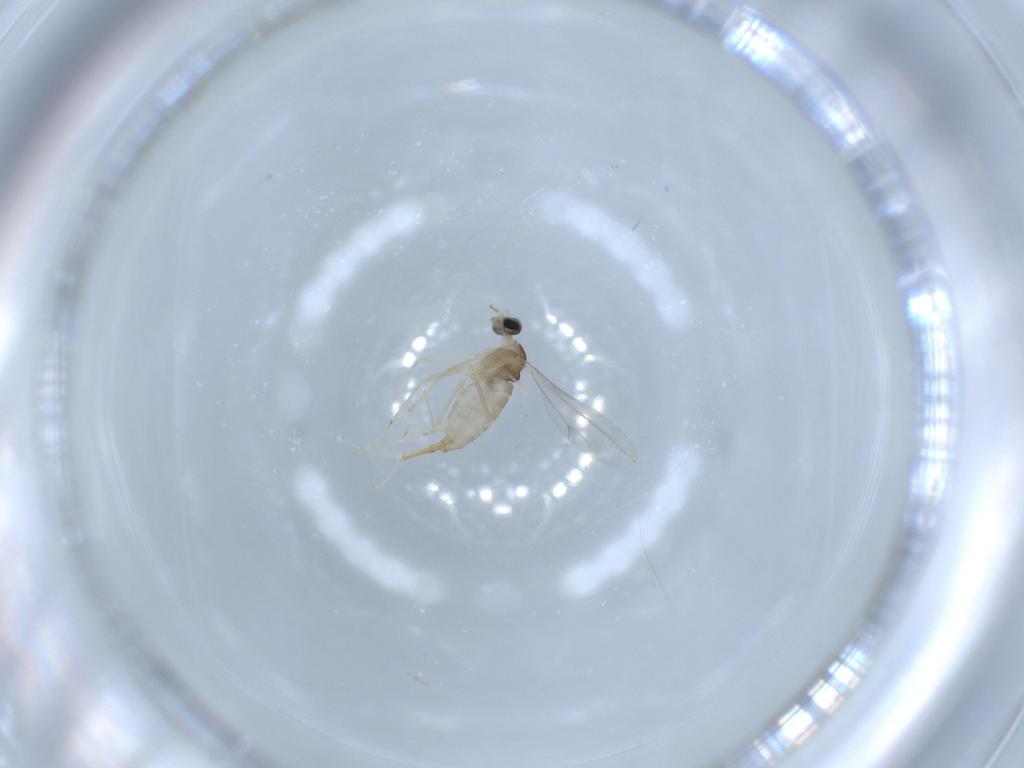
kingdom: Animalia
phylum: Arthropoda
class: Insecta
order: Diptera
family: Cecidomyiidae
